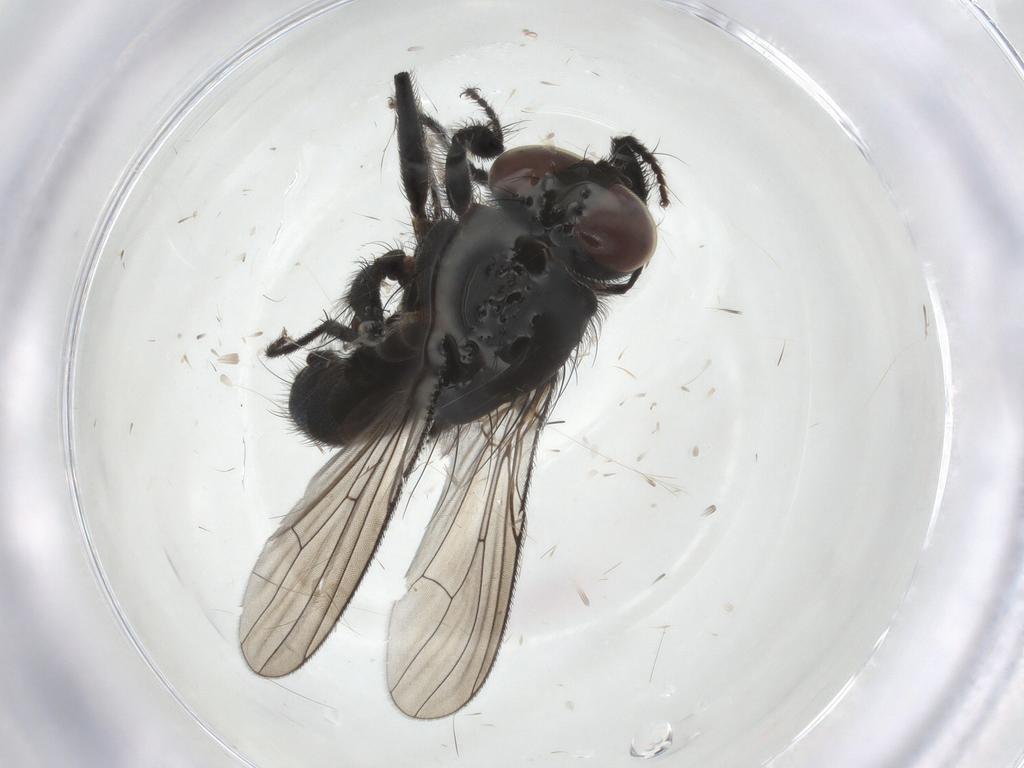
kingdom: Animalia
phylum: Arthropoda
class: Insecta
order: Diptera
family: Muscidae
